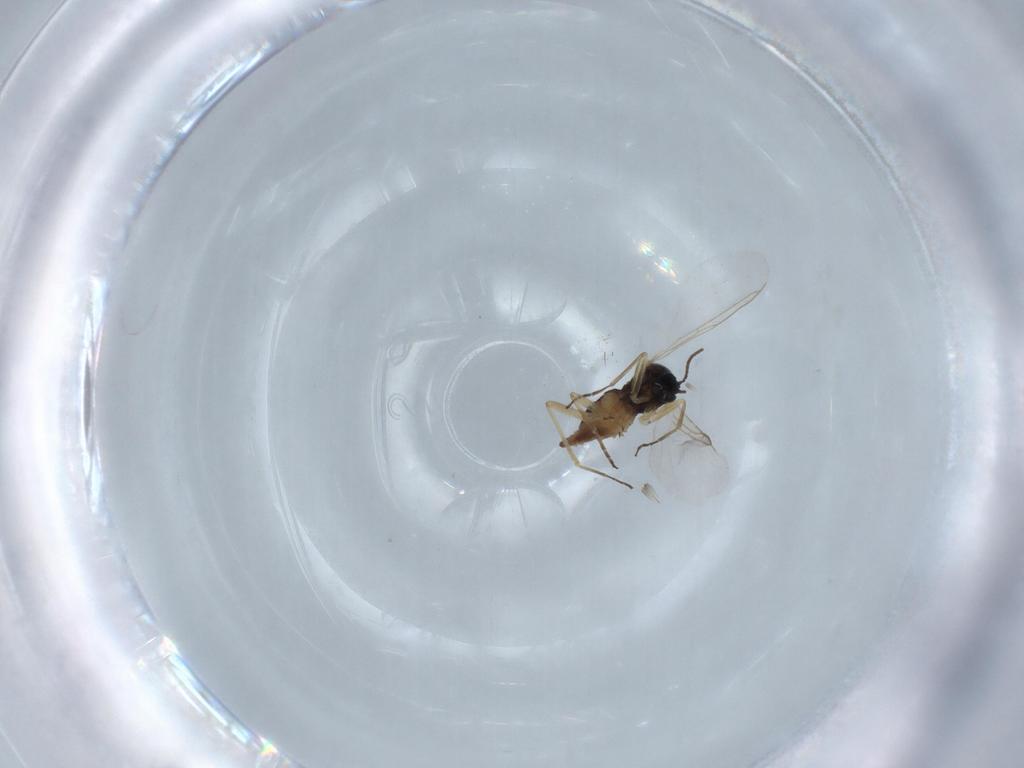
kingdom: Animalia
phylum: Arthropoda
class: Insecta
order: Diptera
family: Sciaridae
